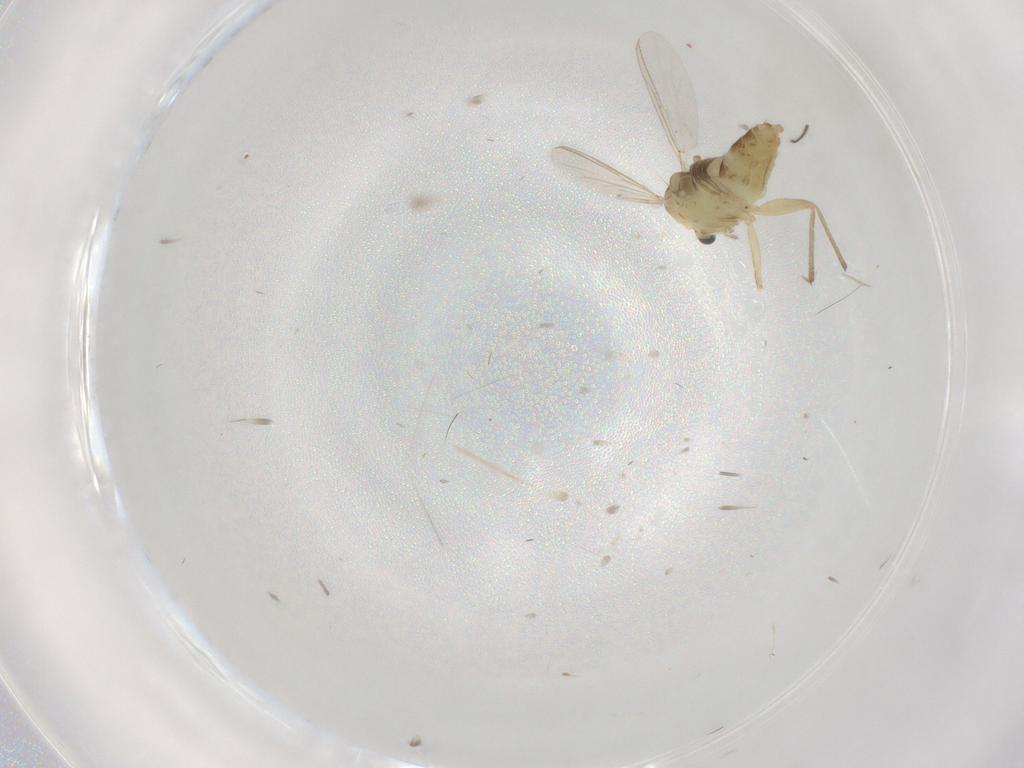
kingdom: Animalia
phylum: Arthropoda
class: Insecta
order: Diptera
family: Chironomidae
